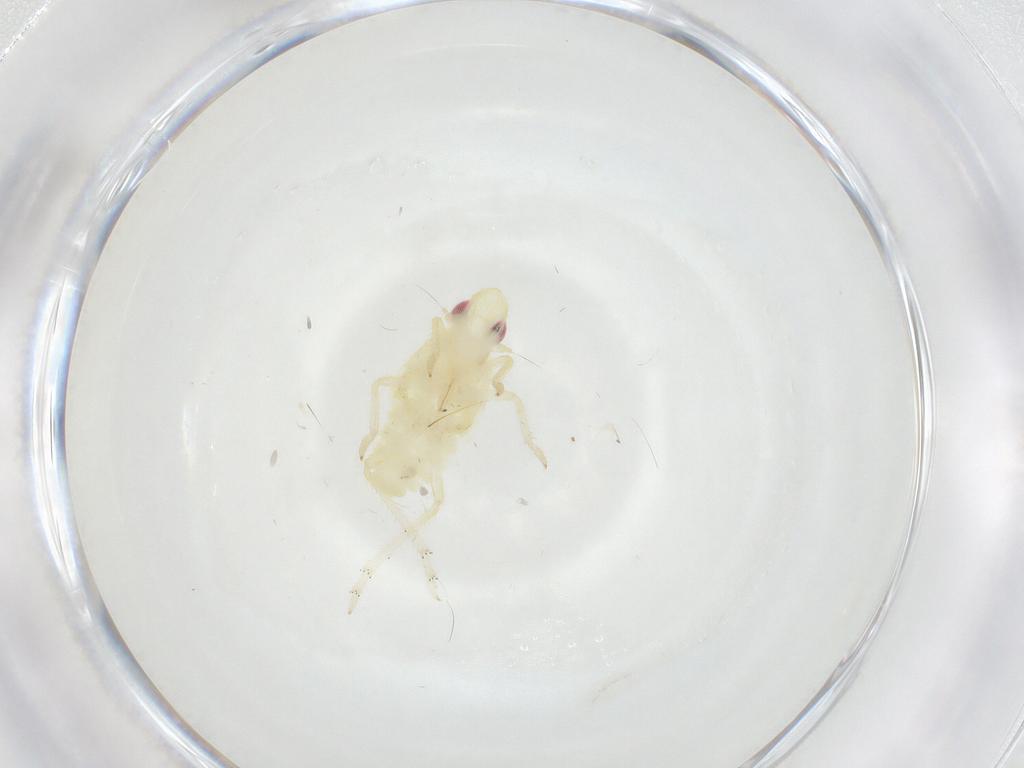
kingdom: Animalia
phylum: Arthropoda
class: Insecta
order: Hemiptera
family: Tropiduchidae
